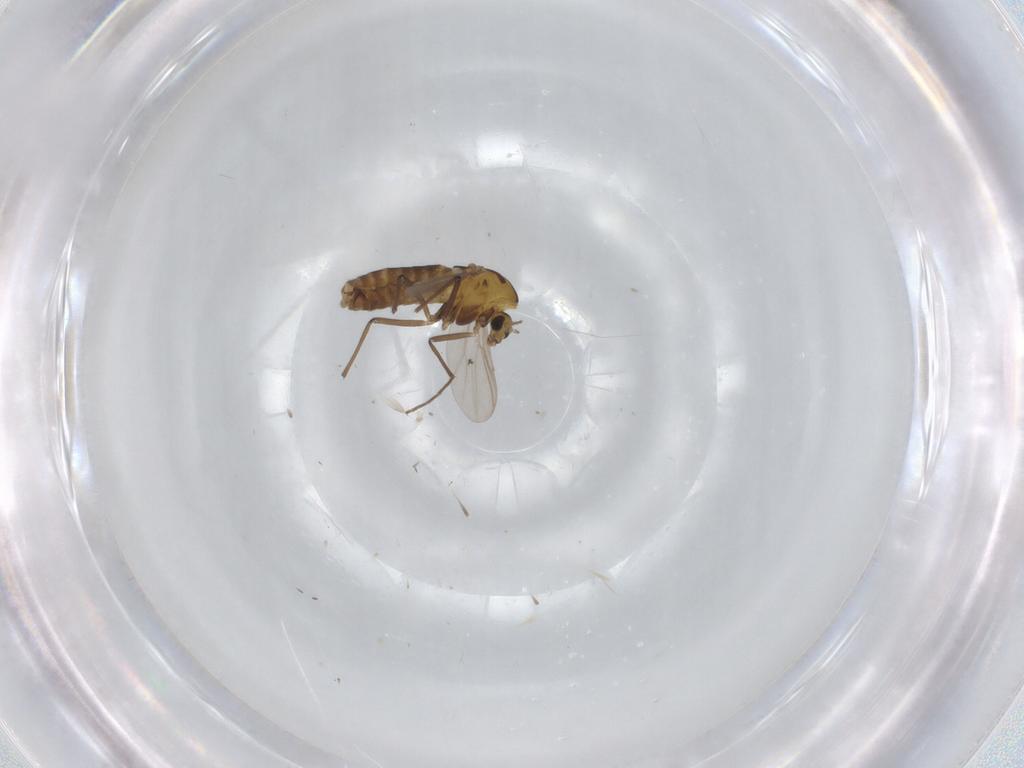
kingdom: Animalia
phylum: Arthropoda
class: Insecta
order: Diptera
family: Chironomidae
